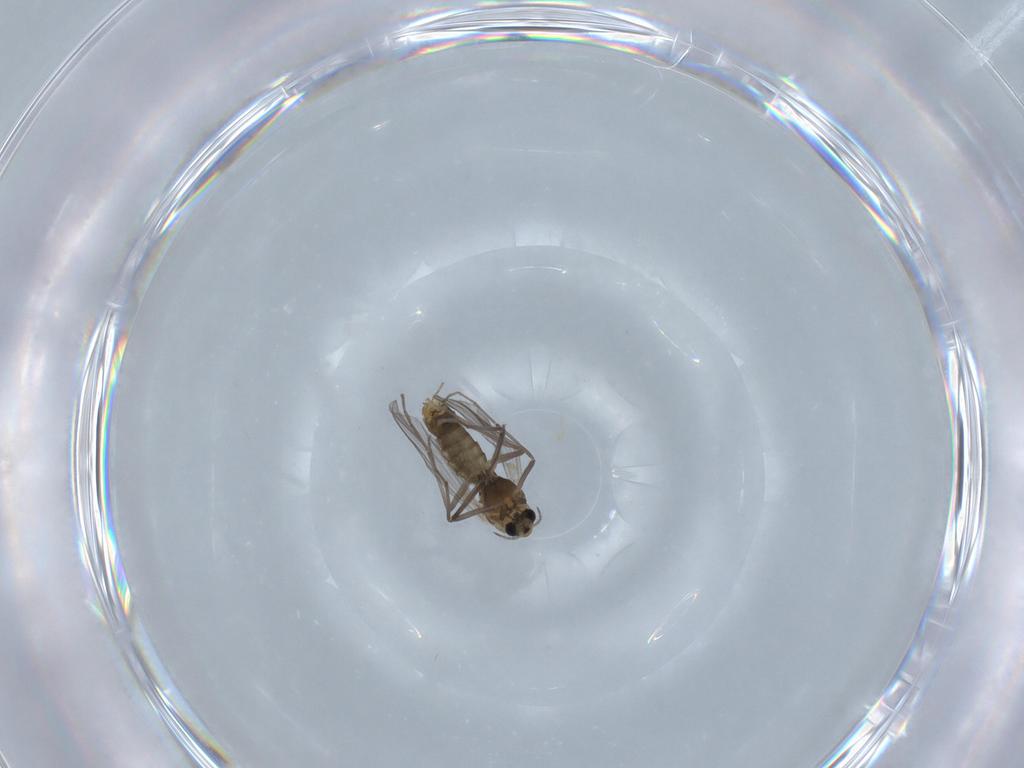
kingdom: Animalia
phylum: Arthropoda
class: Insecta
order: Diptera
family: Chironomidae
